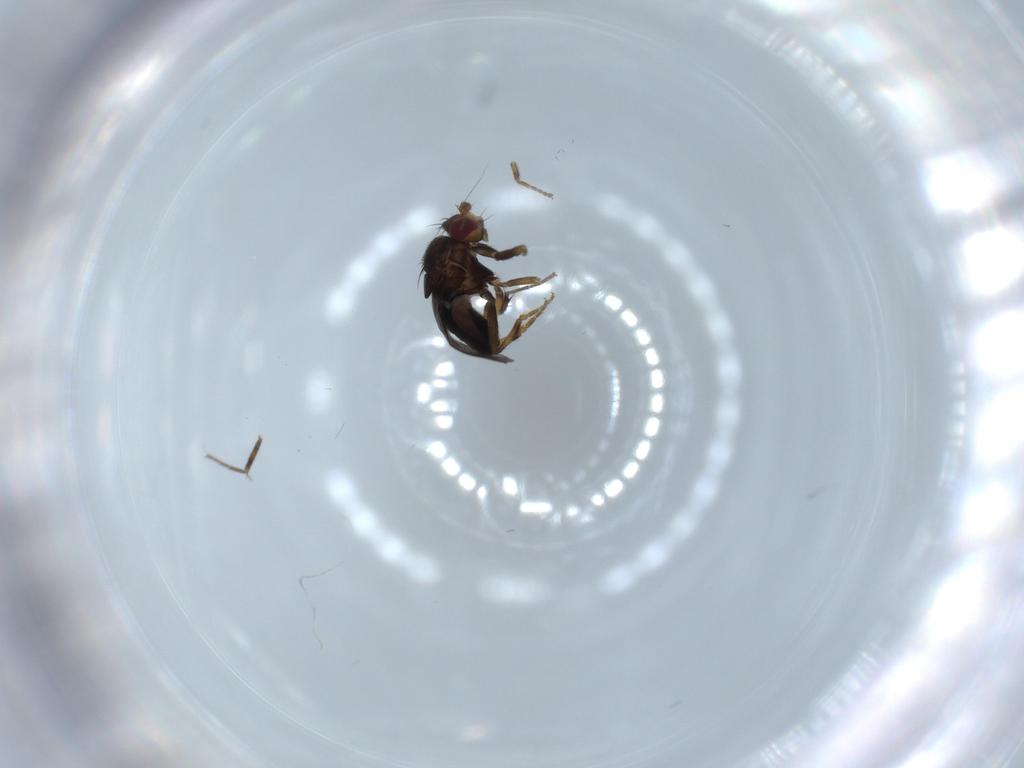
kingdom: Animalia
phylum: Arthropoda
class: Insecta
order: Diptera
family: Sphaeroceridae
